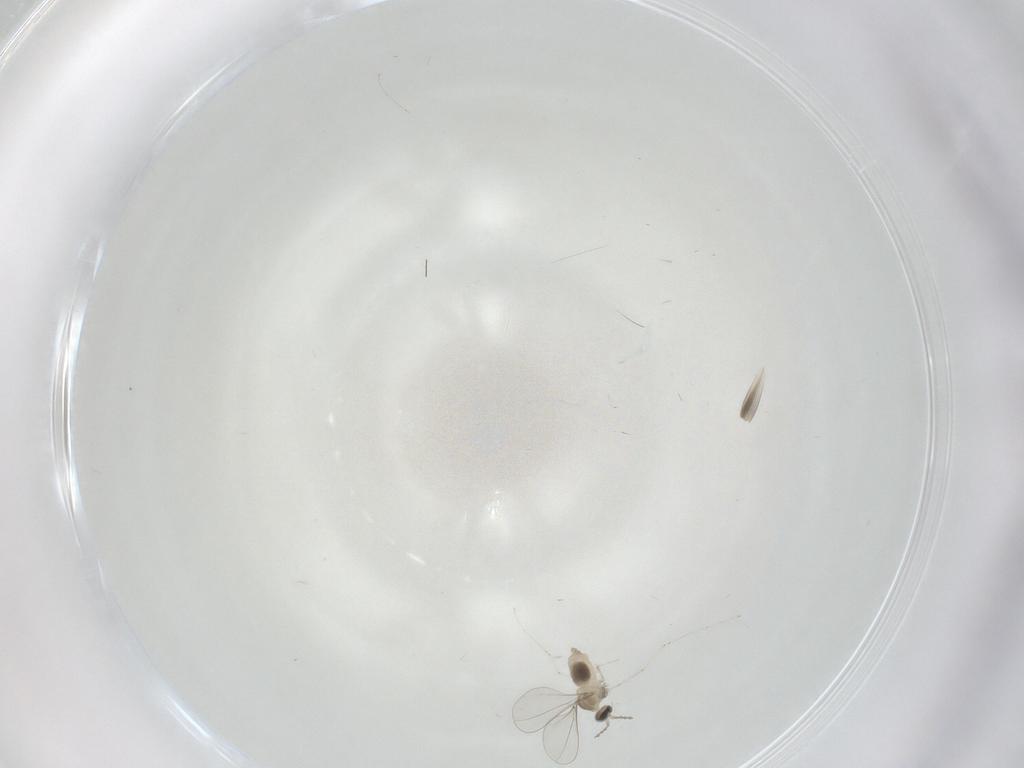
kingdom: Animalia
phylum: Arthropoda
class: Insecta
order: Diptera
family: Cecidomyiidae
